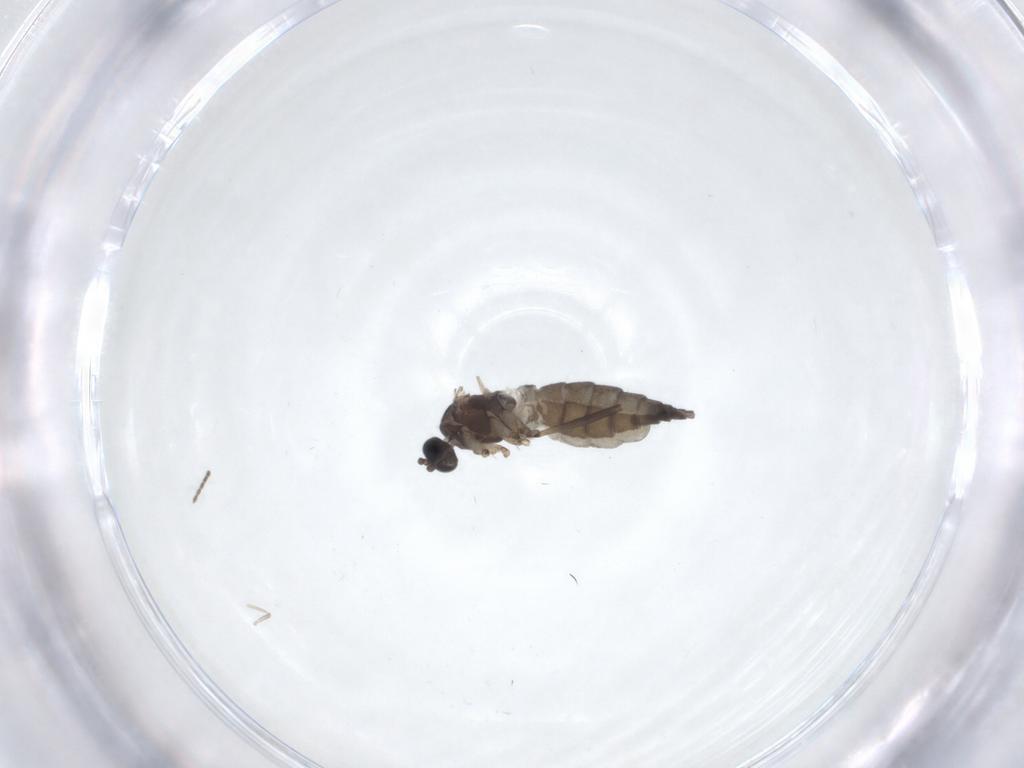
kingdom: Animalia
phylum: Arthropoda
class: Insecta
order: Diptera
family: Sciaridae
